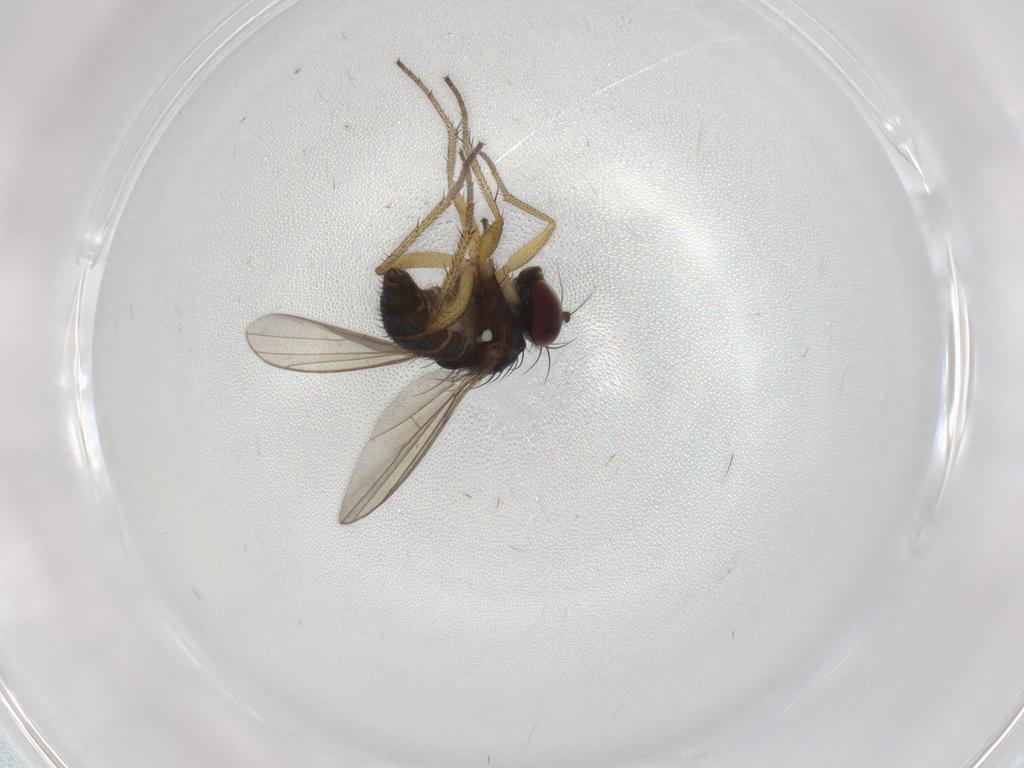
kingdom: Animalia
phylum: Arthropoda
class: Insecta
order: Diptera
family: Dolichopodidae
